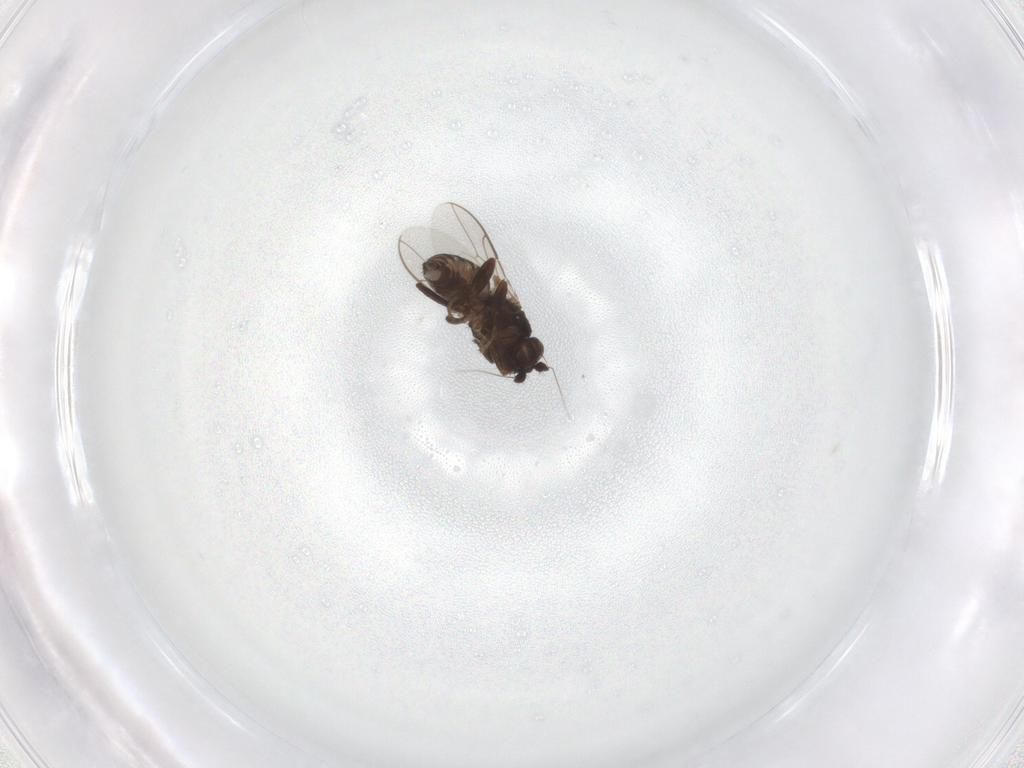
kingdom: Animalia
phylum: Arthropoda
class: Insecta
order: Diptera
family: Sphaeroceridae
